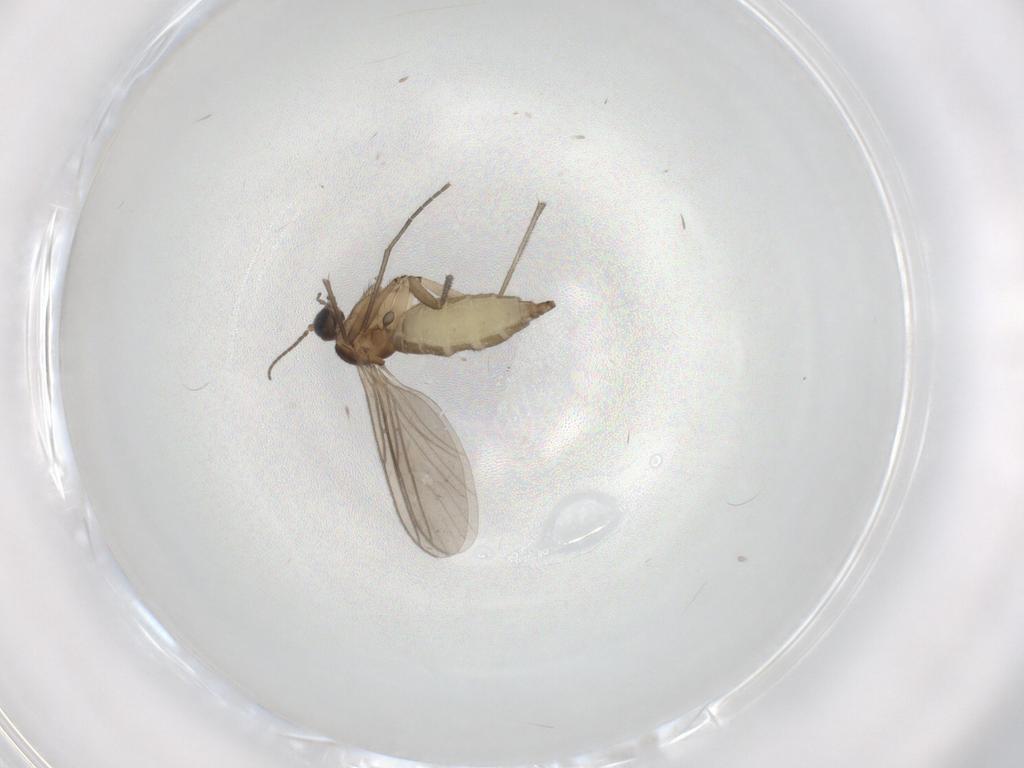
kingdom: Animalia
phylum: Arthropoda
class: Insecta
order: Diptera
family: Sciaridae
